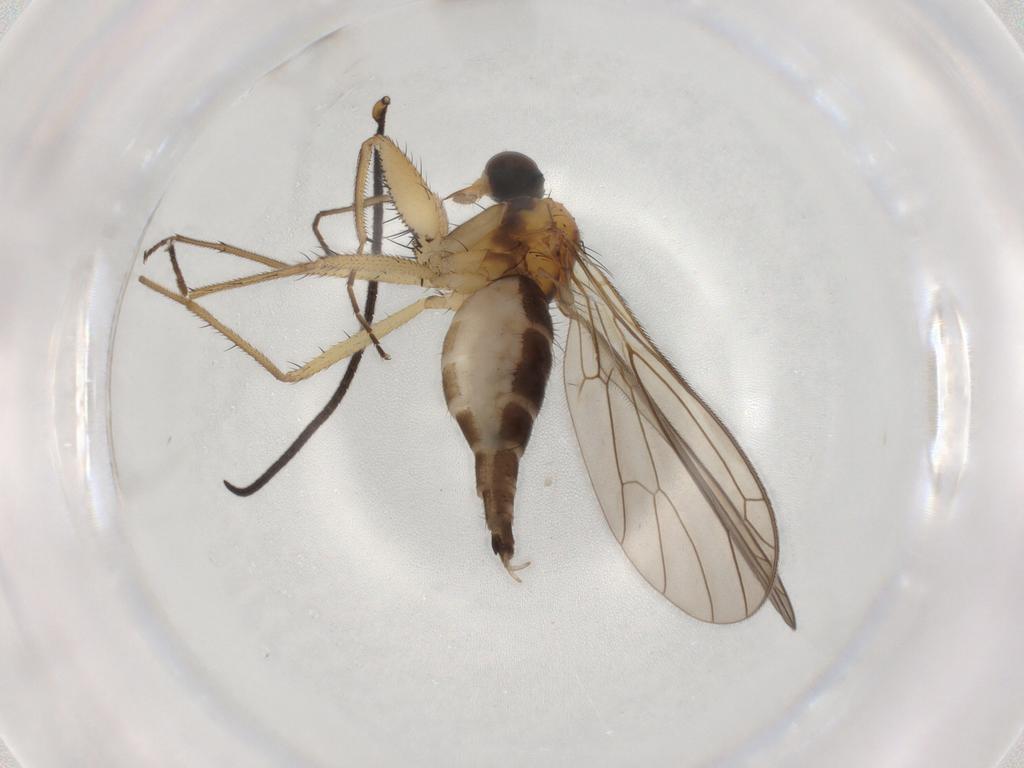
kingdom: Animalia
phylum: Arthropoda
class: Insecta
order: Diptera
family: Empididae
